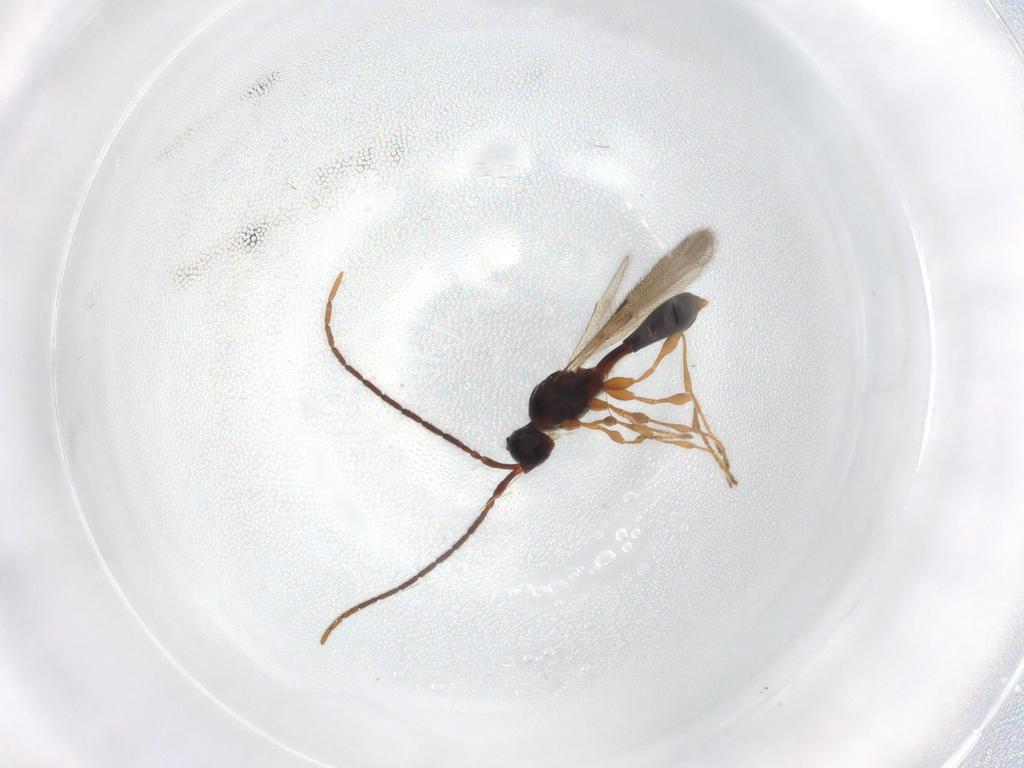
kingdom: Animalia
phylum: Arthropoda
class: Insecta
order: Hymenoptera
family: Diapriidae
